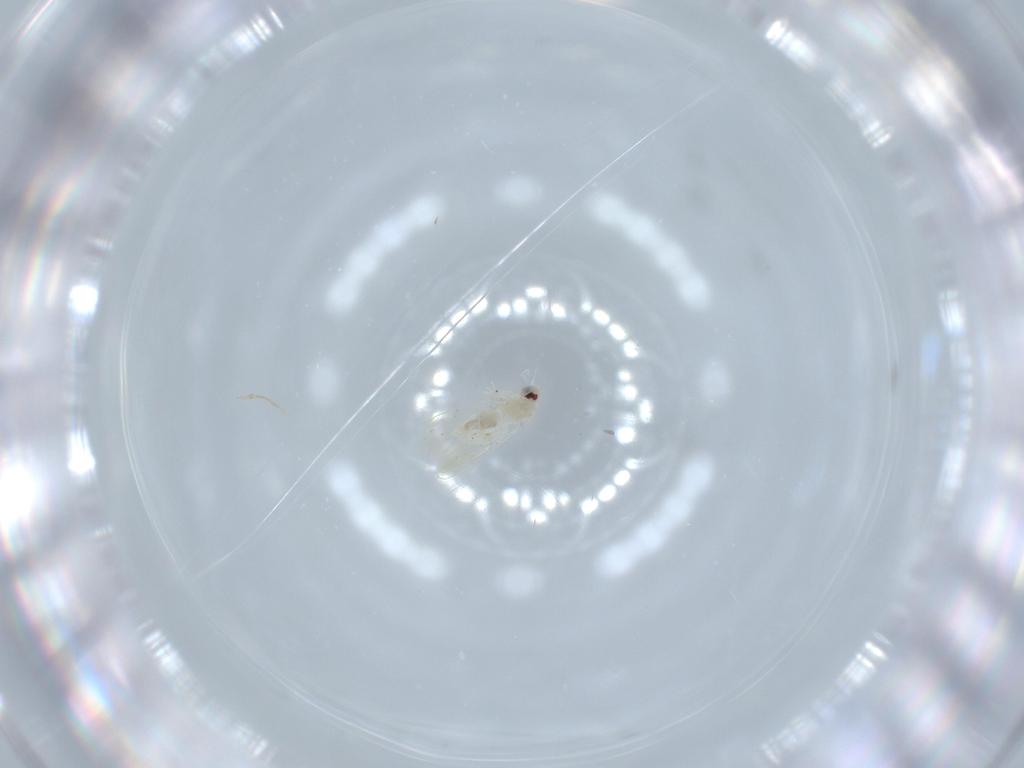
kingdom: Animalia
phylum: Arthropoda
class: Insecta
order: Hemiptera
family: Aleyrodidae
